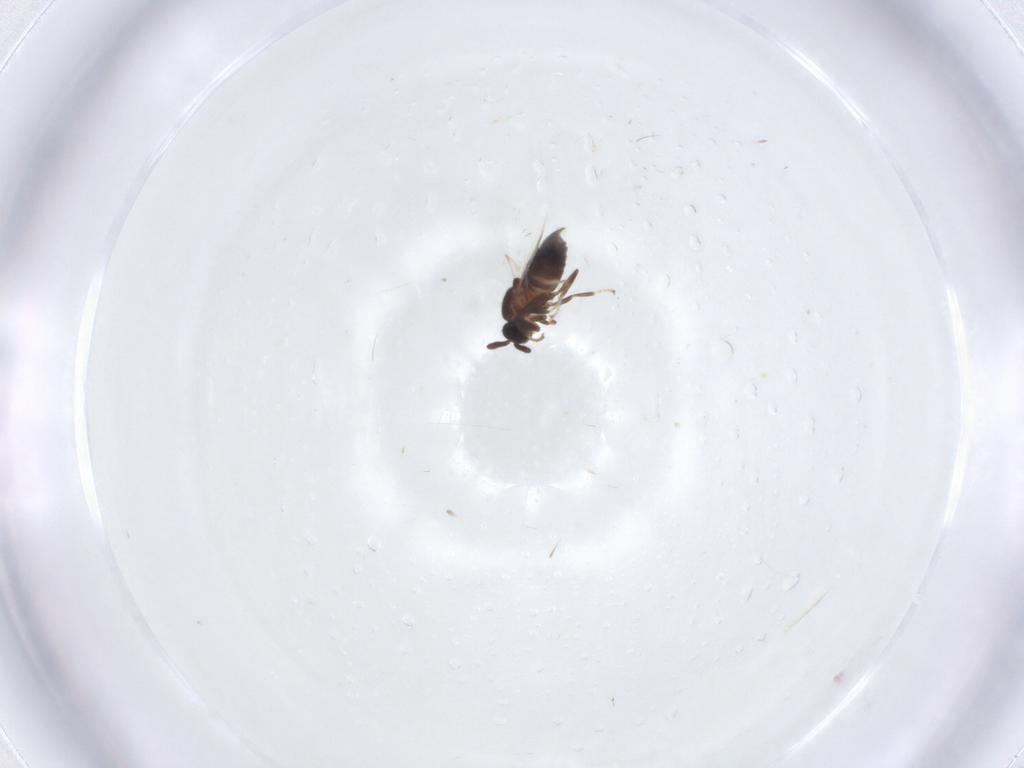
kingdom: Animalia
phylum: Arthropoda
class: Insecta
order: Diptera
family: Scatopsidae
